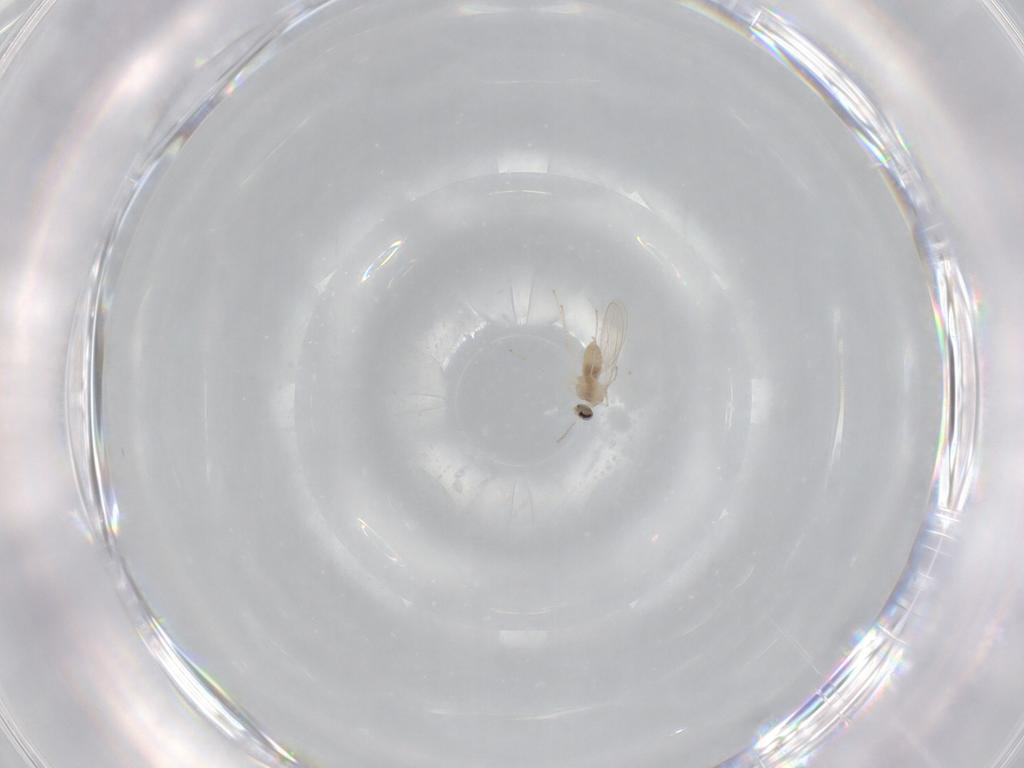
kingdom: Animalia
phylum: Arthropoda
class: Insecta
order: Diptera
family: Cecidomyiidae
